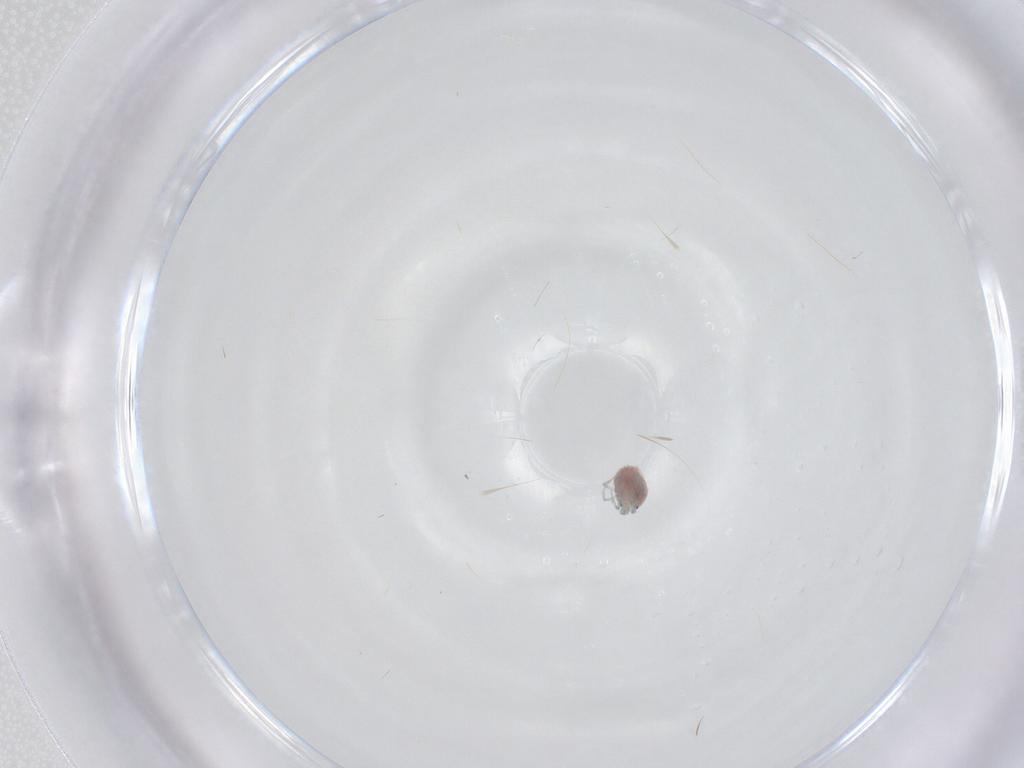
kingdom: Animalia
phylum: Arthropoda
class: Arachnida
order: Trombidiformes
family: Pionidae
